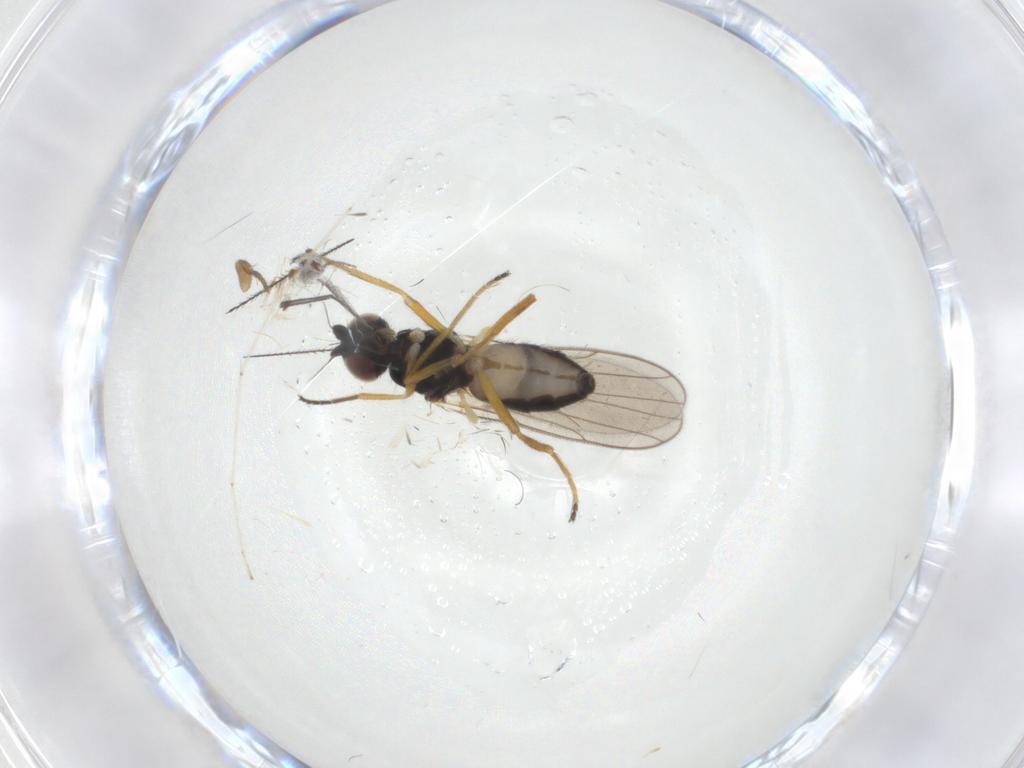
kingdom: Animalia
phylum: Arthropoda
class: Insecta
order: Diptera
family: Chloropidae
